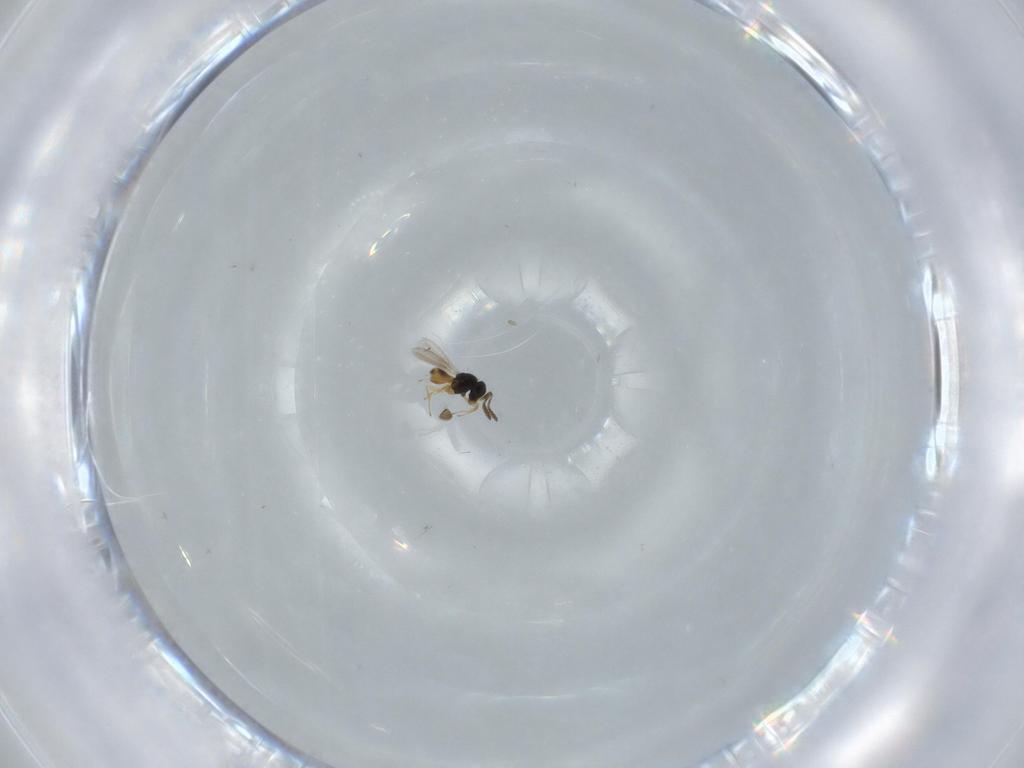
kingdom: Animalia
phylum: Arthropoda
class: Insecta
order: Hymenoptera
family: Scelionidae
